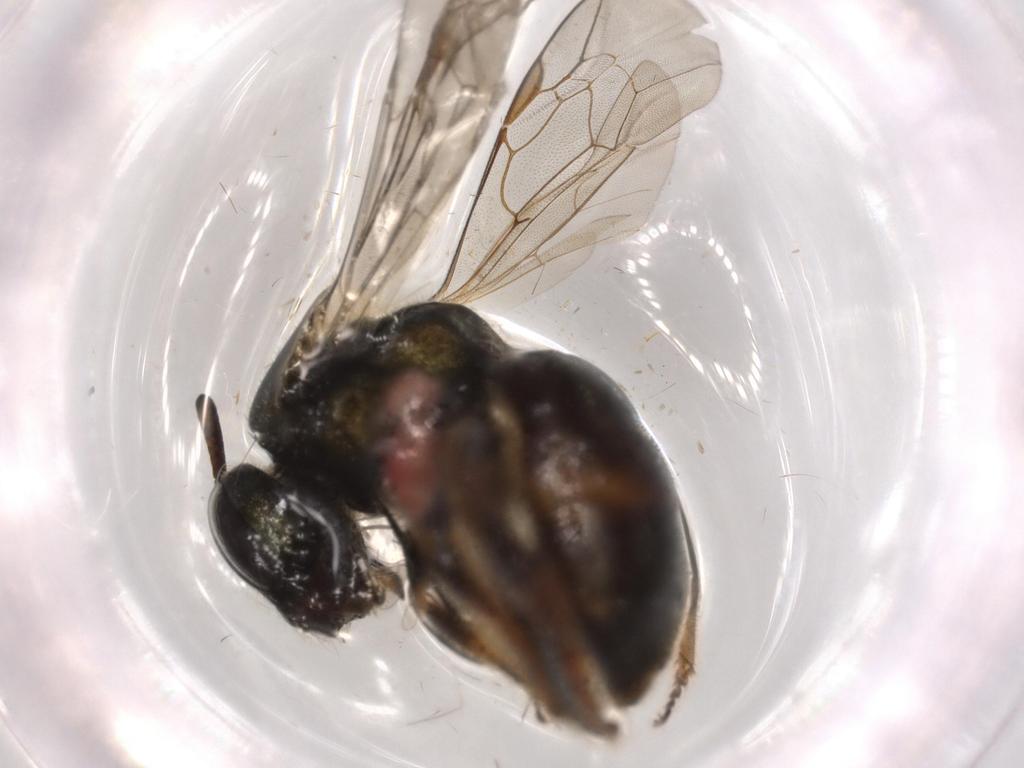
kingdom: Animalia
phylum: Arthropoda
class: Insecta
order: Hymenoptera
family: Halictidae
